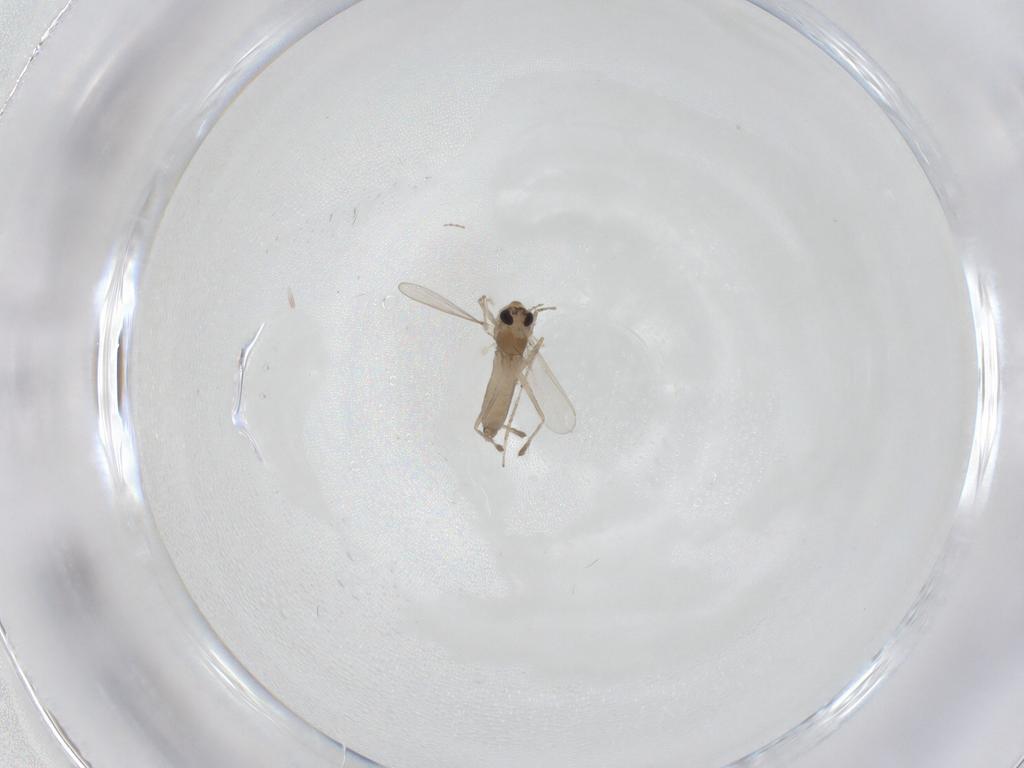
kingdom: Animalia
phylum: Arthropoda
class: Insecta
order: Diptera
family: Chironomidae
